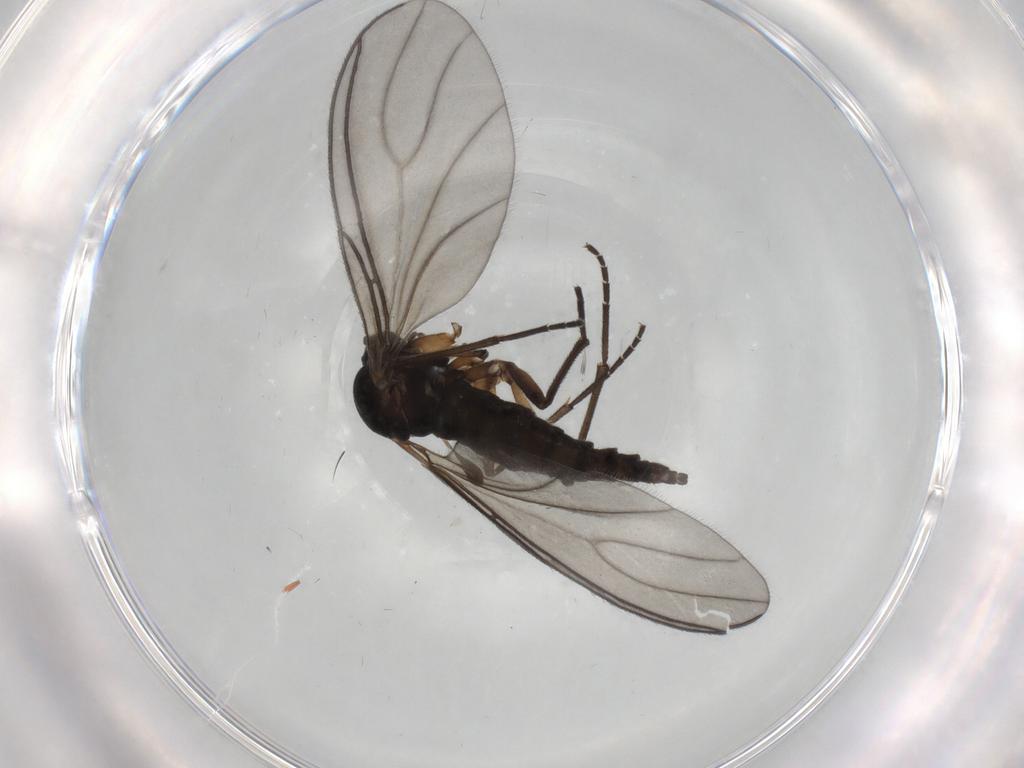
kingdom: Animalia
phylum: Arthropoda
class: Insecta
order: Diptera
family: Sciaridae
